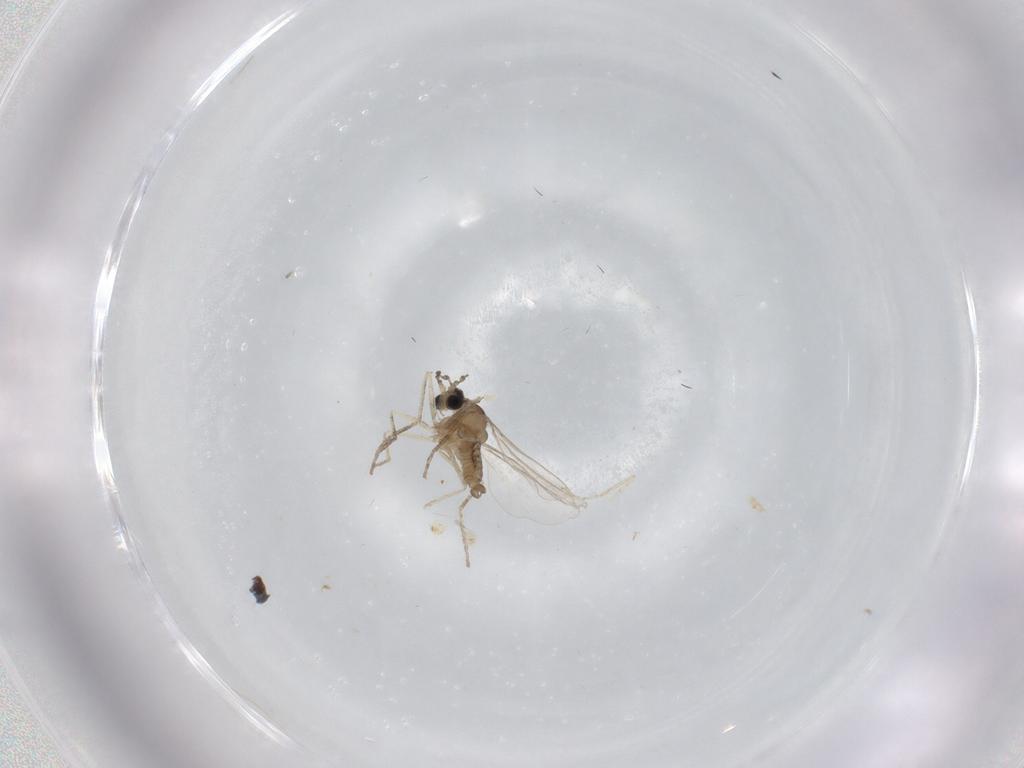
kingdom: Animalia
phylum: Arthropoda
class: Insecta
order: Diptera
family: Cecidomyiidae
